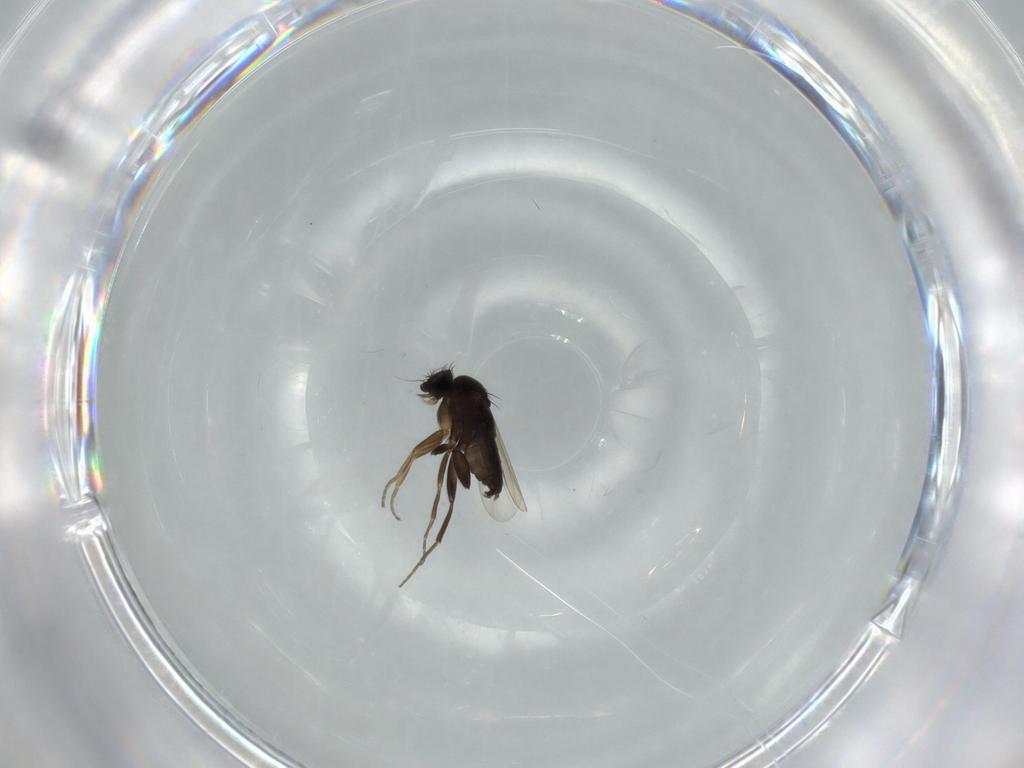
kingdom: Animalia
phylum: Arthropoda
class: Insecta
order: Diptera
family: Phoridae
